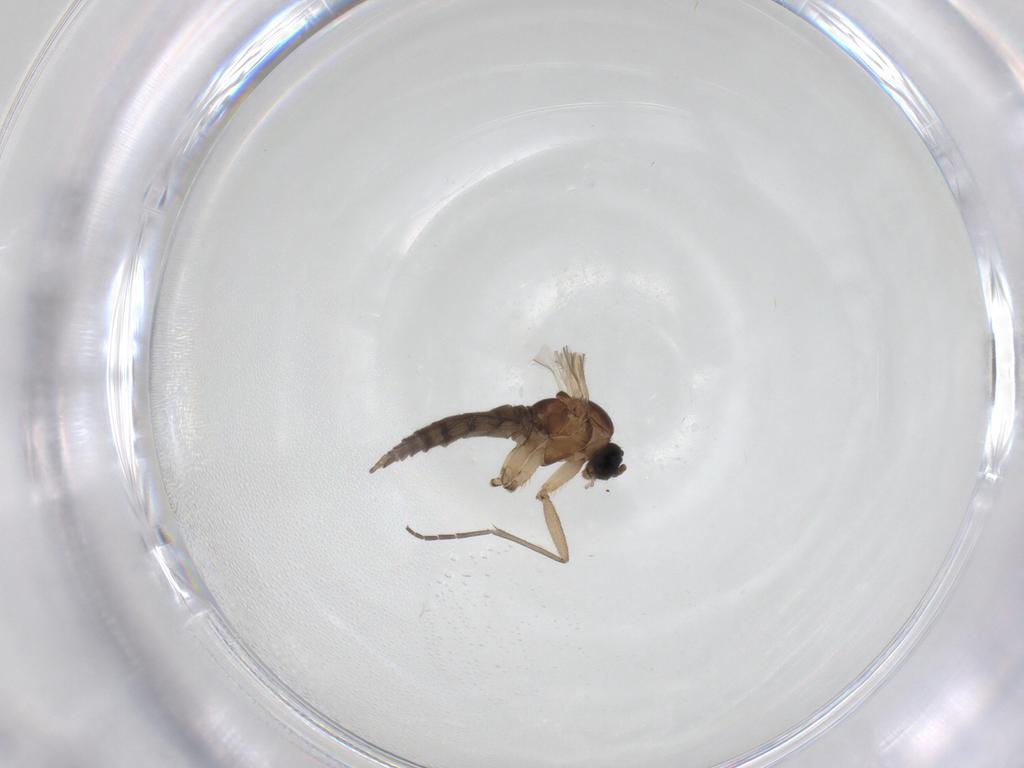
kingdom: Animalia
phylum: Arthropoda
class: Insecta
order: Diptera
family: Sciaridae
